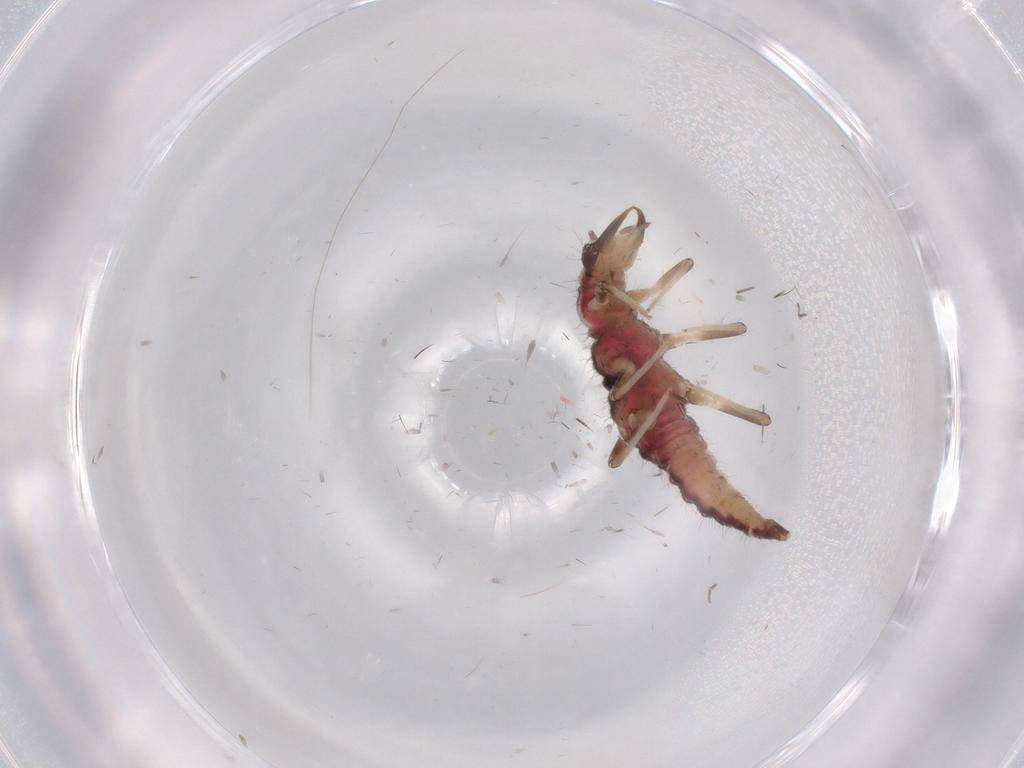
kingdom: Animalia
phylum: Arthropoda
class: Insecta
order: Neuroptera
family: Hemerobiidae
